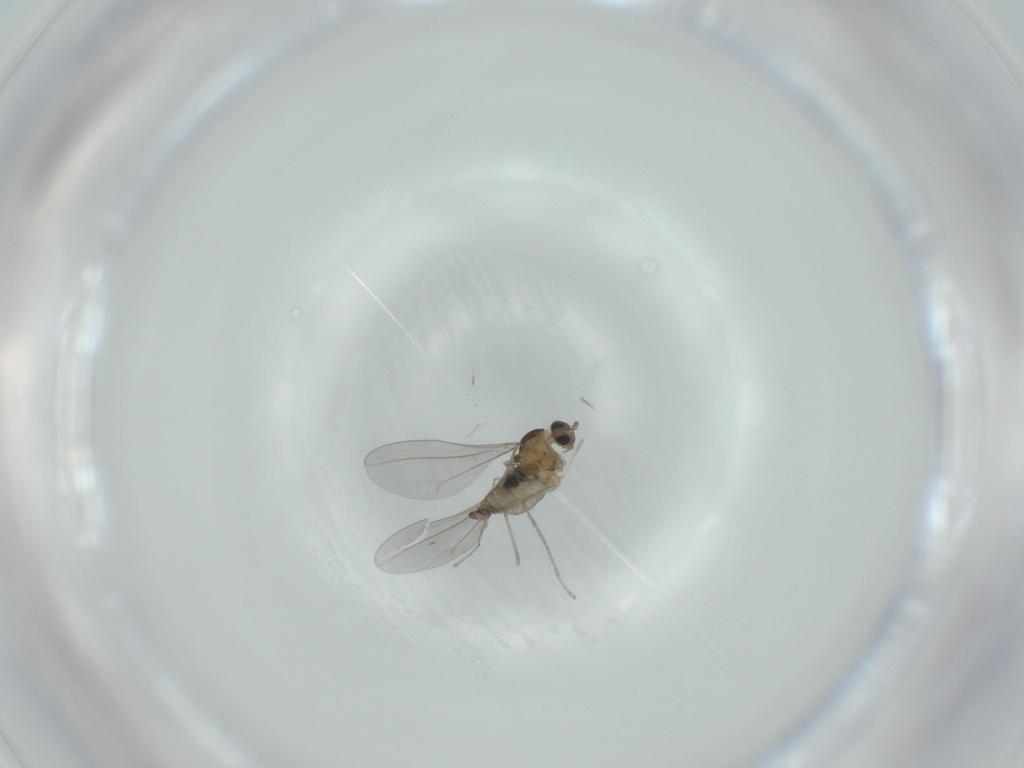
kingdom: Animalia
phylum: Arthropoda
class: Insecta
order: Diptera
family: Cecidomyiidae
